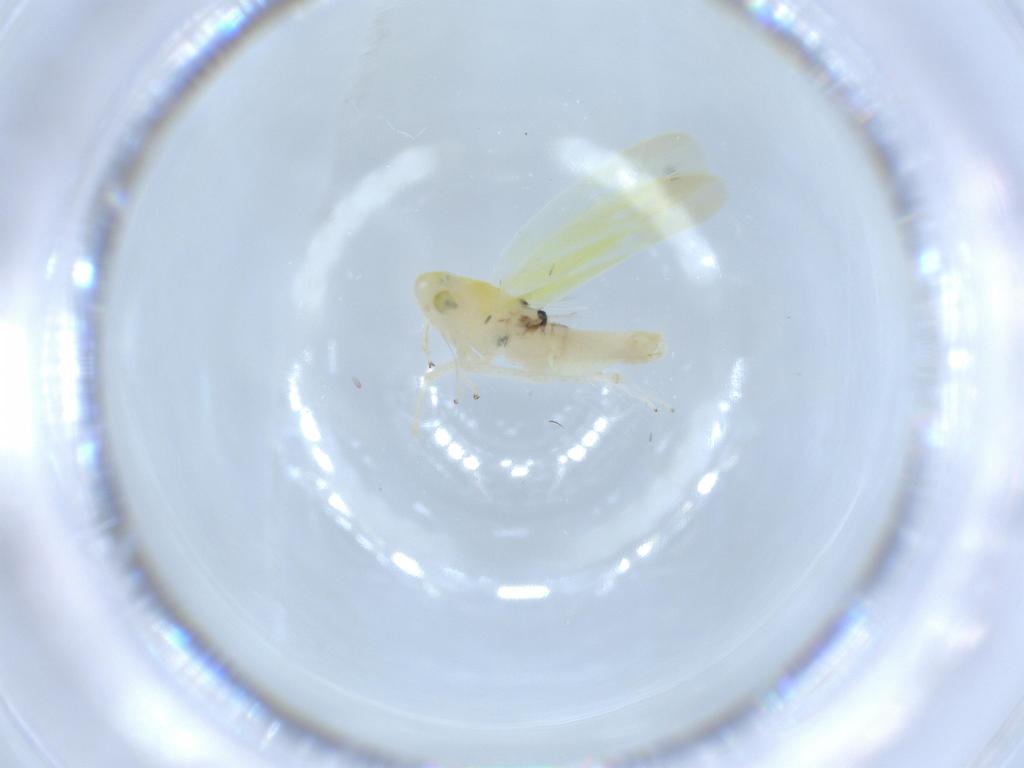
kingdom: Animalia
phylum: Arthropoda
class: Insecta
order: Hemiptera
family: Cicadellidae
